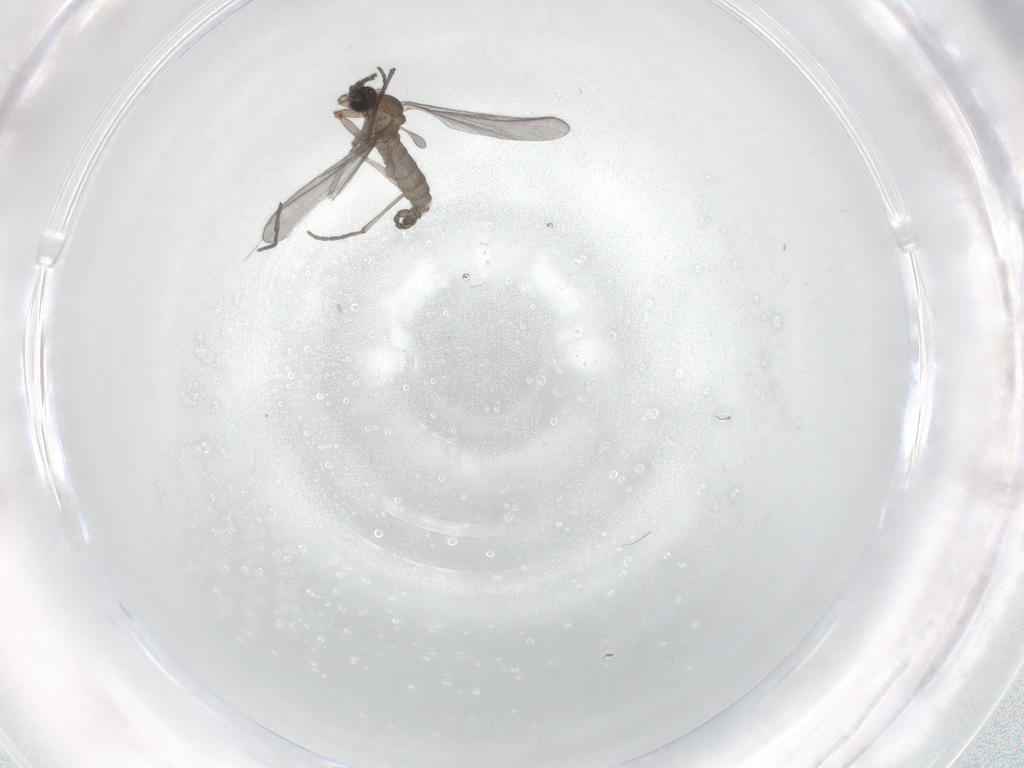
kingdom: Animalia
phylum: Arthropoda
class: Insecta
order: Diptera
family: Sciaridae
